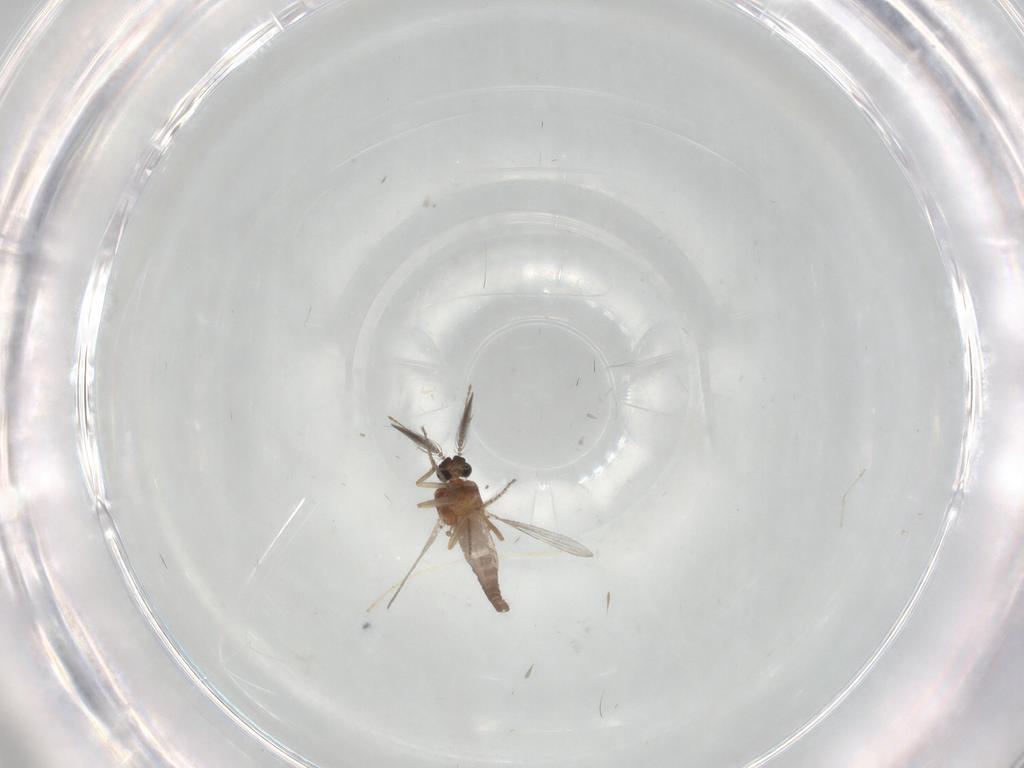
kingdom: Animalia
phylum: Arthropoda
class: Insecta
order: Diptera
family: Ceratopogonidae
